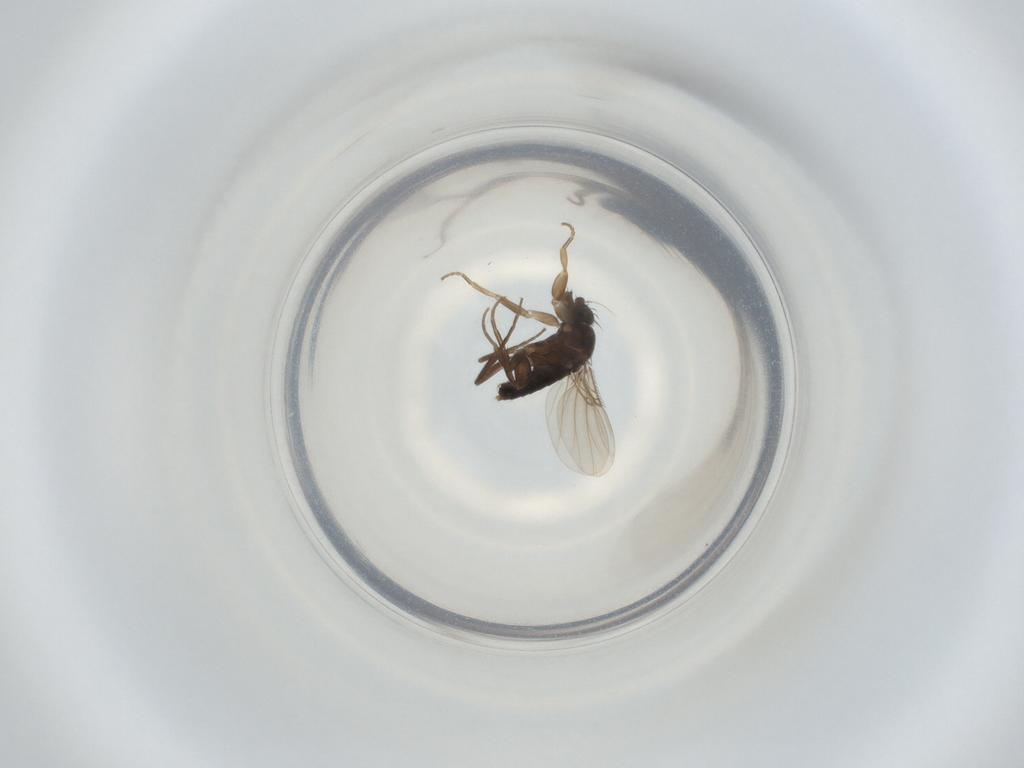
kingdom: Animalia
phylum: Arthropoda
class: Insecta
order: Diptera
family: Phoridae
